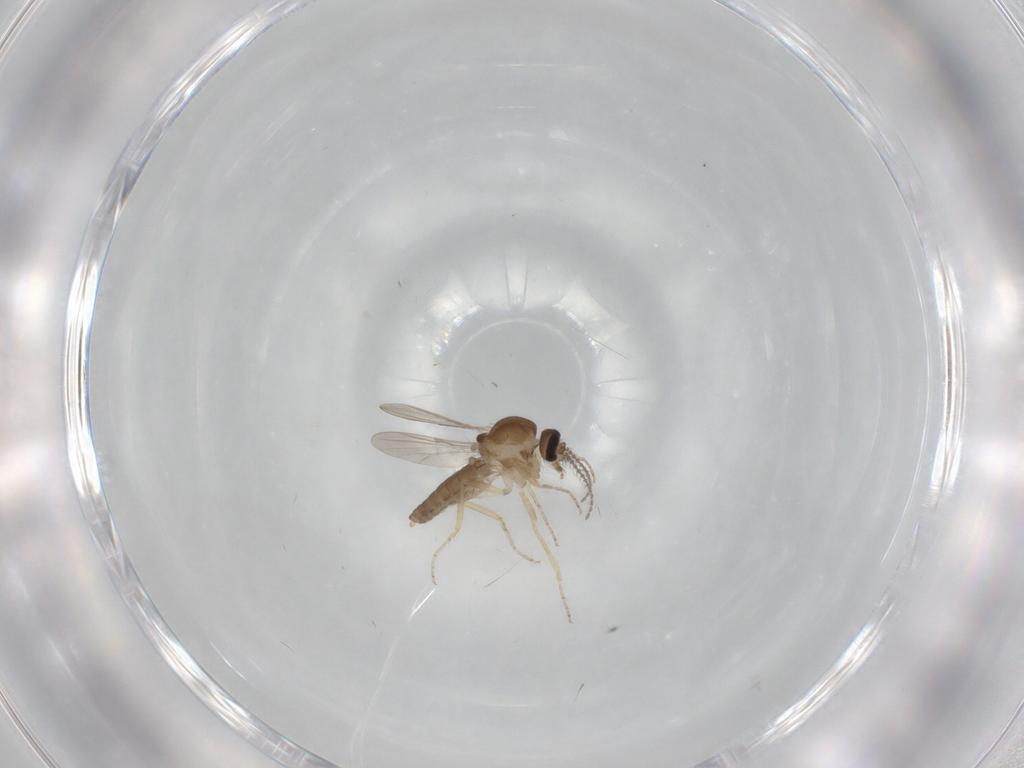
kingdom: Animalia
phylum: Arthropoda
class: Insecta
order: Diptera
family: Ceratopogonidae
